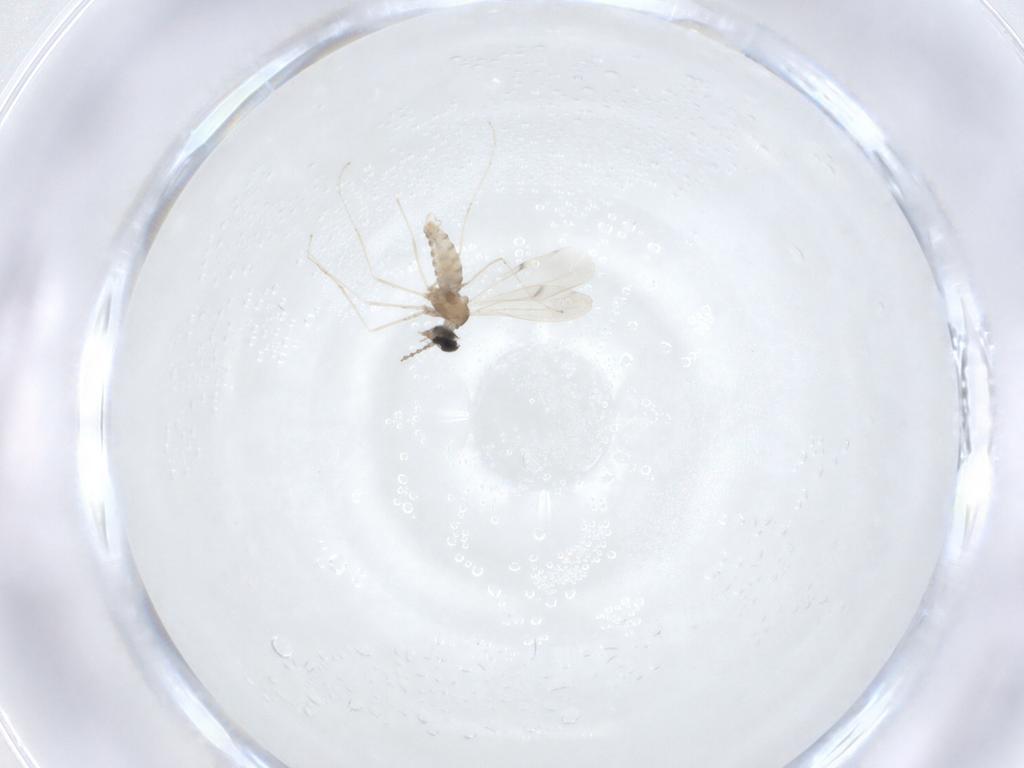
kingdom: Animalia
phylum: Arthropoda
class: Insecta
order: Diptera
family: Cecidomyiidae
